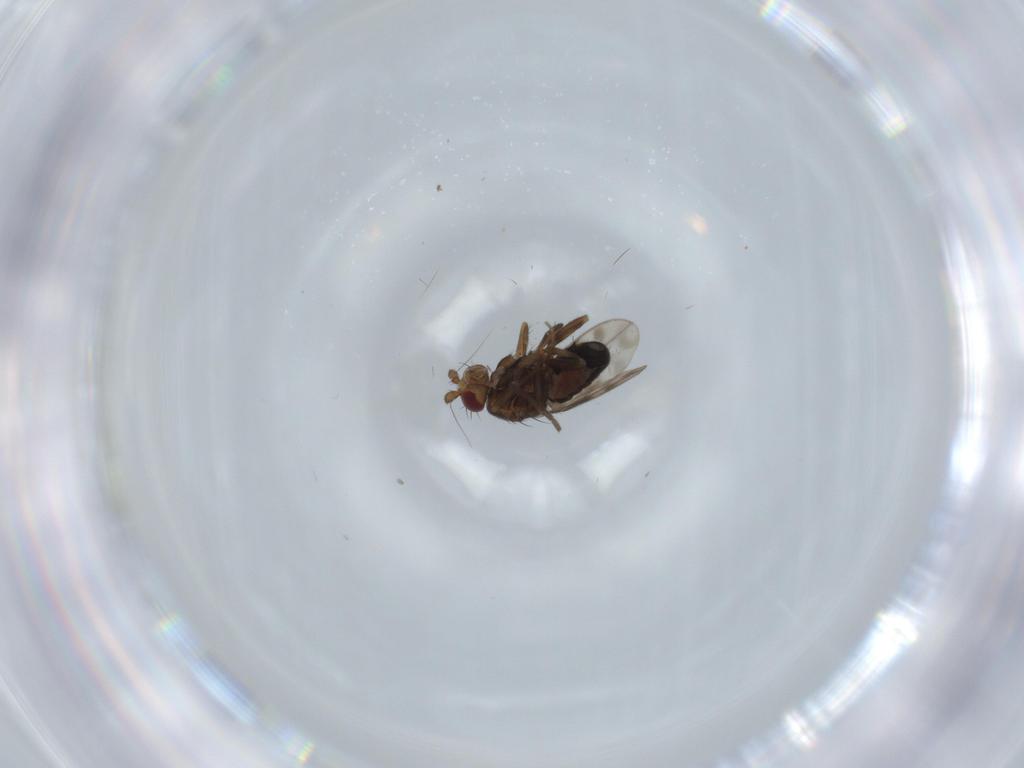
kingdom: Animalia
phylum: Arthropoda
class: Insecta
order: Diptera
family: Sphaeroceridae
